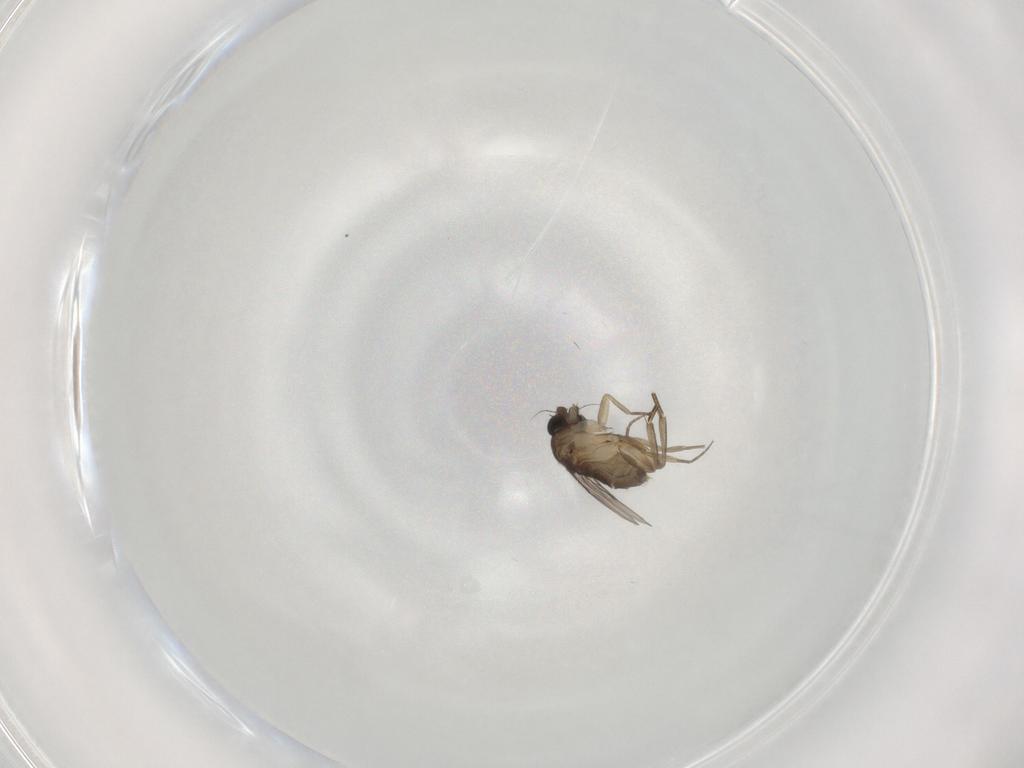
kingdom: Animalia
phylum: Arthropoda
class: Insecta
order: Diptera
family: Phoridae
